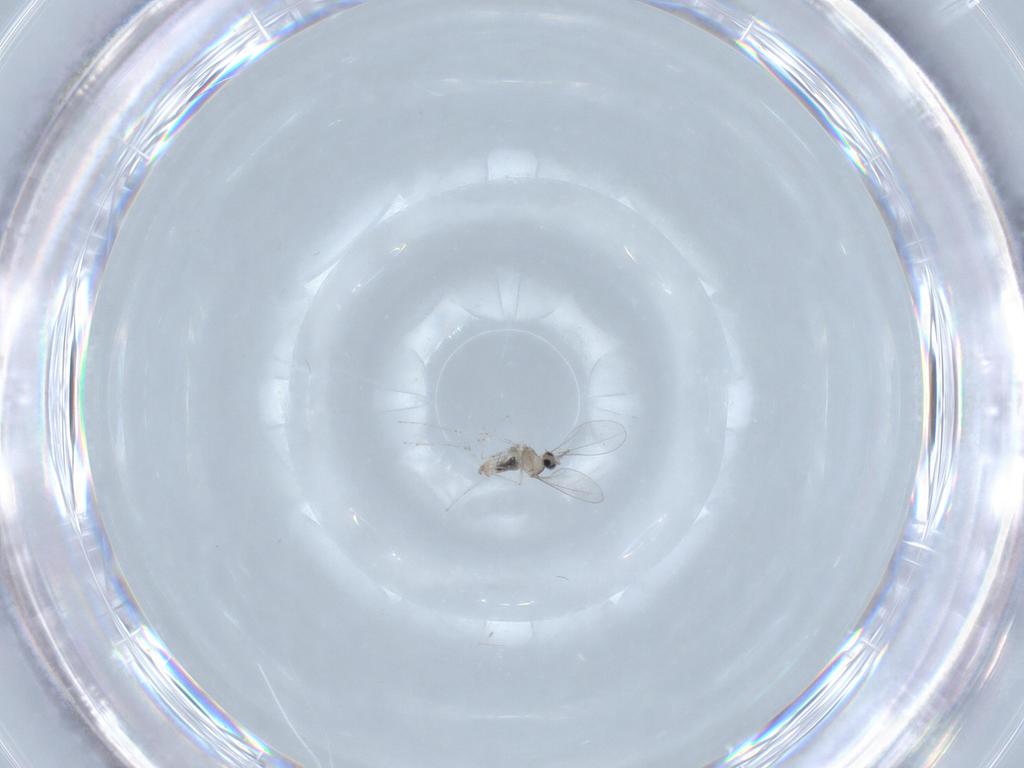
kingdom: Animalia
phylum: Arthropoda
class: Insecta
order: Diptera
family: Cecidomyiidae
